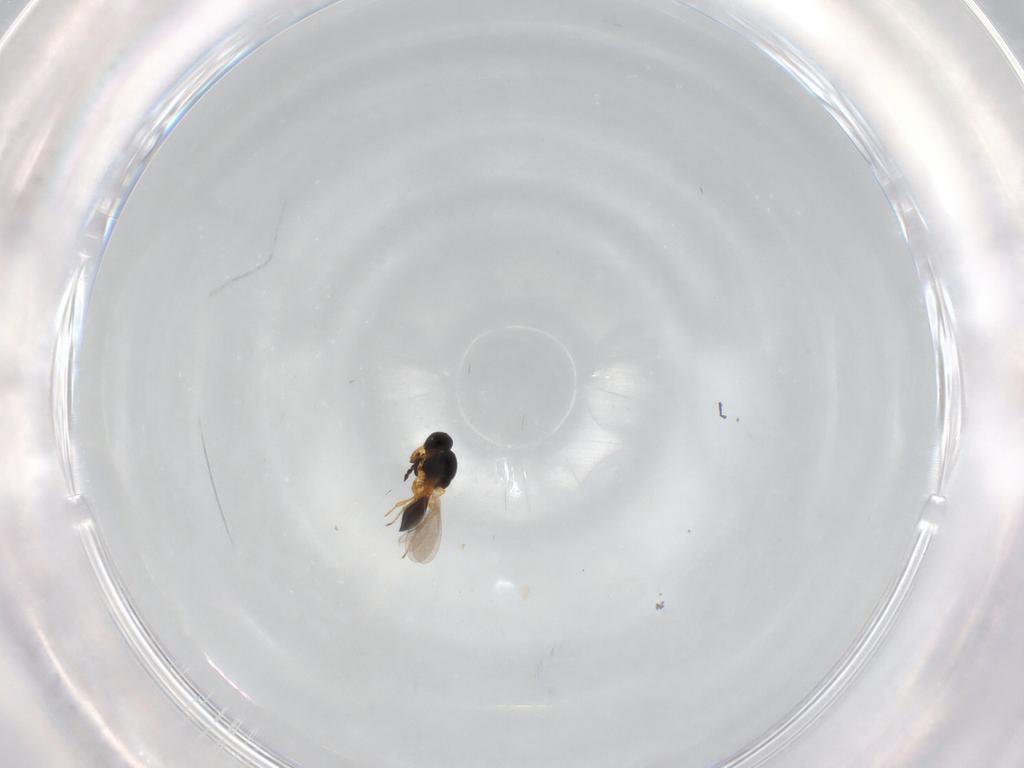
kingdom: Animalia
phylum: Arthropoda
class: Insecta
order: Hymenoptera
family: Platygastridae
